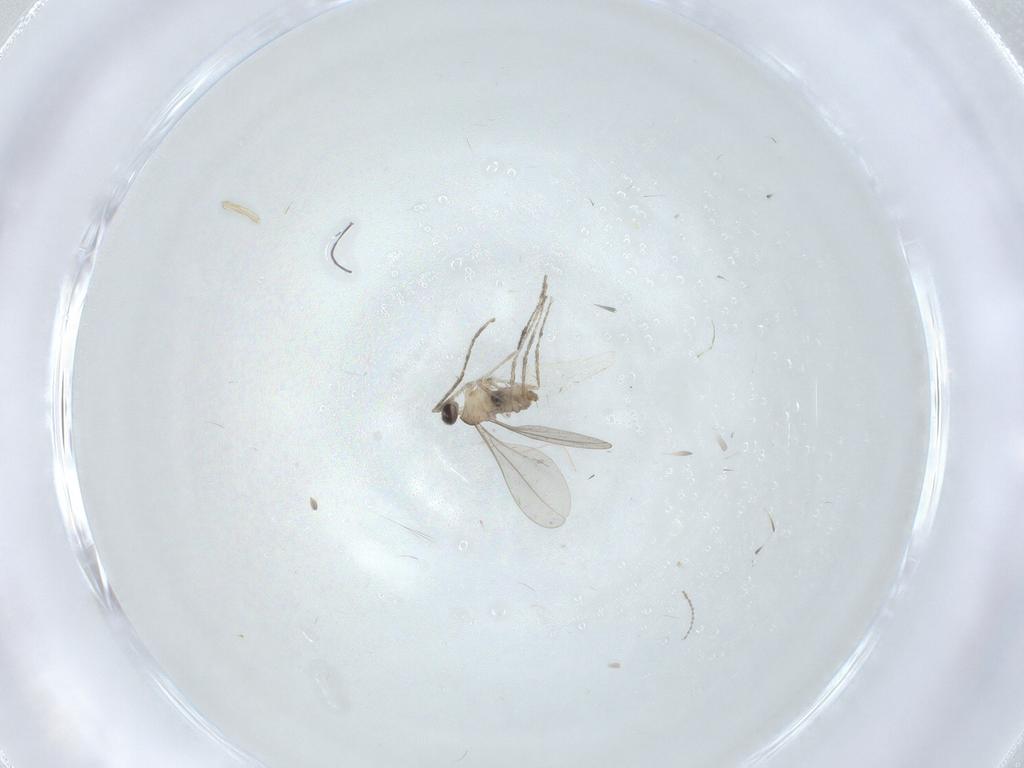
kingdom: Animalia
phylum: Arthropoda
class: Insecta
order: Diptera
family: Cecidomyiidae
